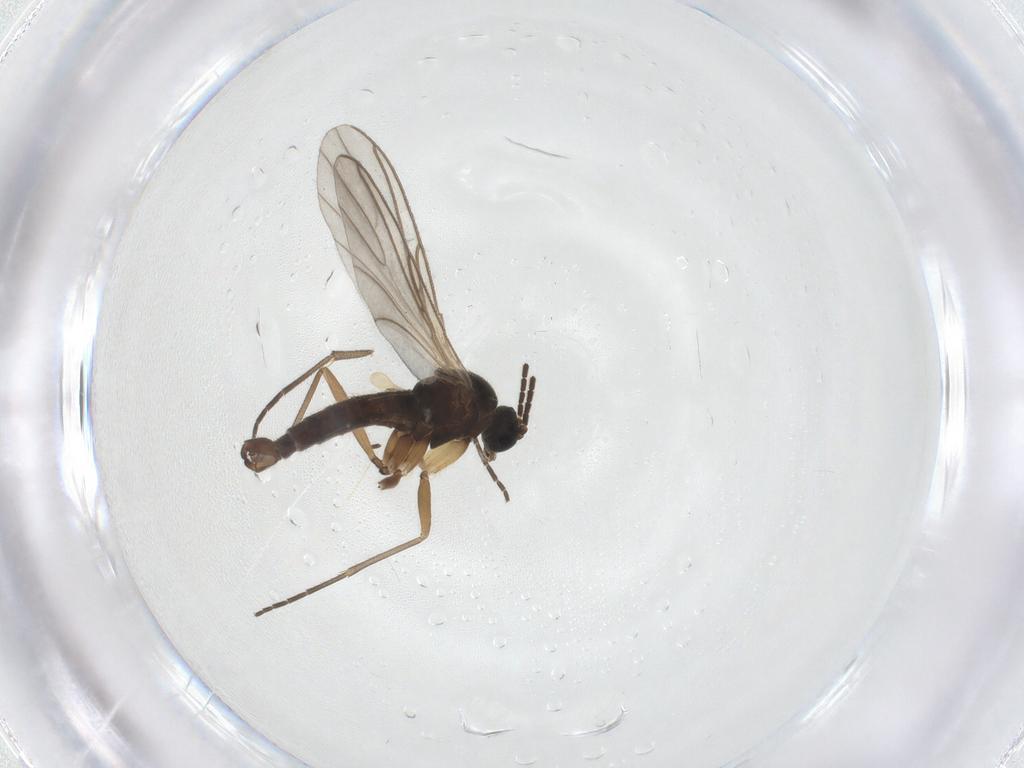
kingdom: Animalia
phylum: Arthropoda
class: Insecta
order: Diptera
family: Sciaridae
